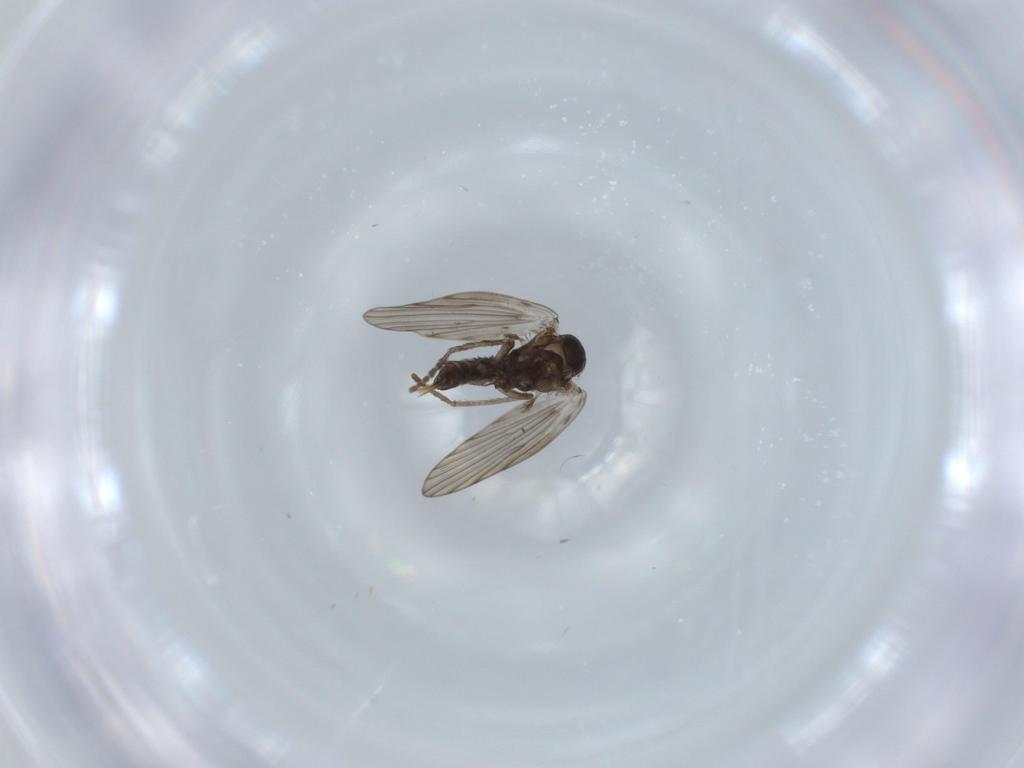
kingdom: Animalia
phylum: Arthropoda
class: Insecta
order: Diptera
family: Psychodidae
